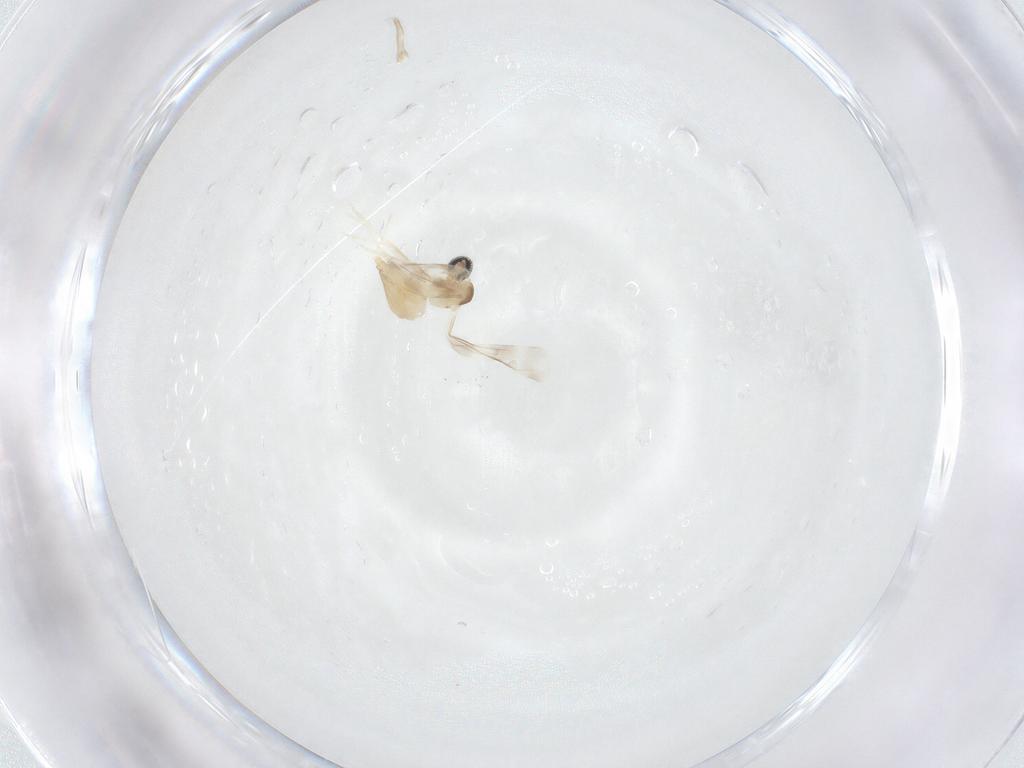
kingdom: Animalia
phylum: Arthropoda
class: Insecta
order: Diptera
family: Cecidomyiidae
